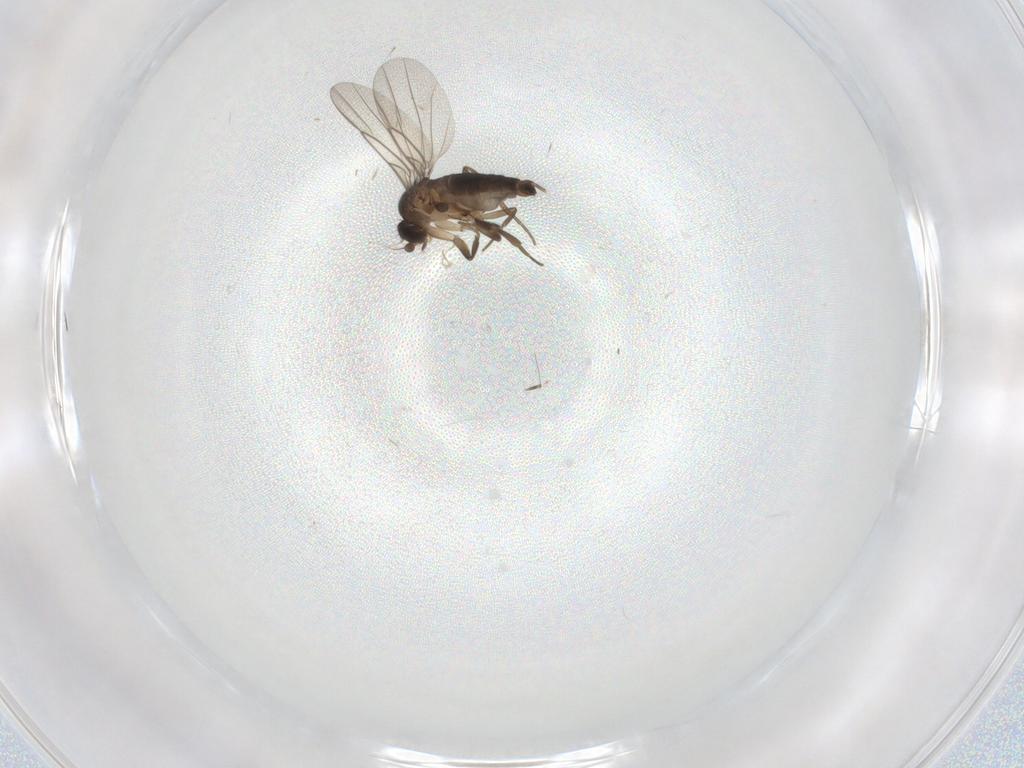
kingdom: Animalia
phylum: Arthropoda
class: Insecta
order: Diptera
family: Phoridae
